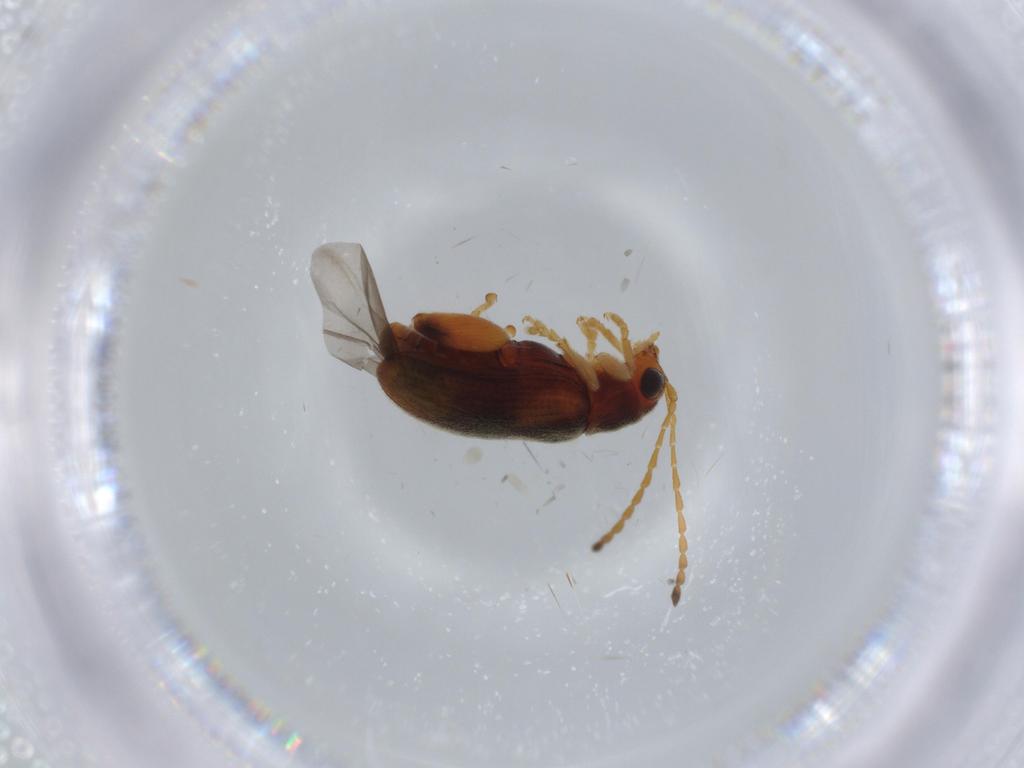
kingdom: Animalia
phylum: Arthropoda
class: Insecta
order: Coleoptera
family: Chrysomelidae
